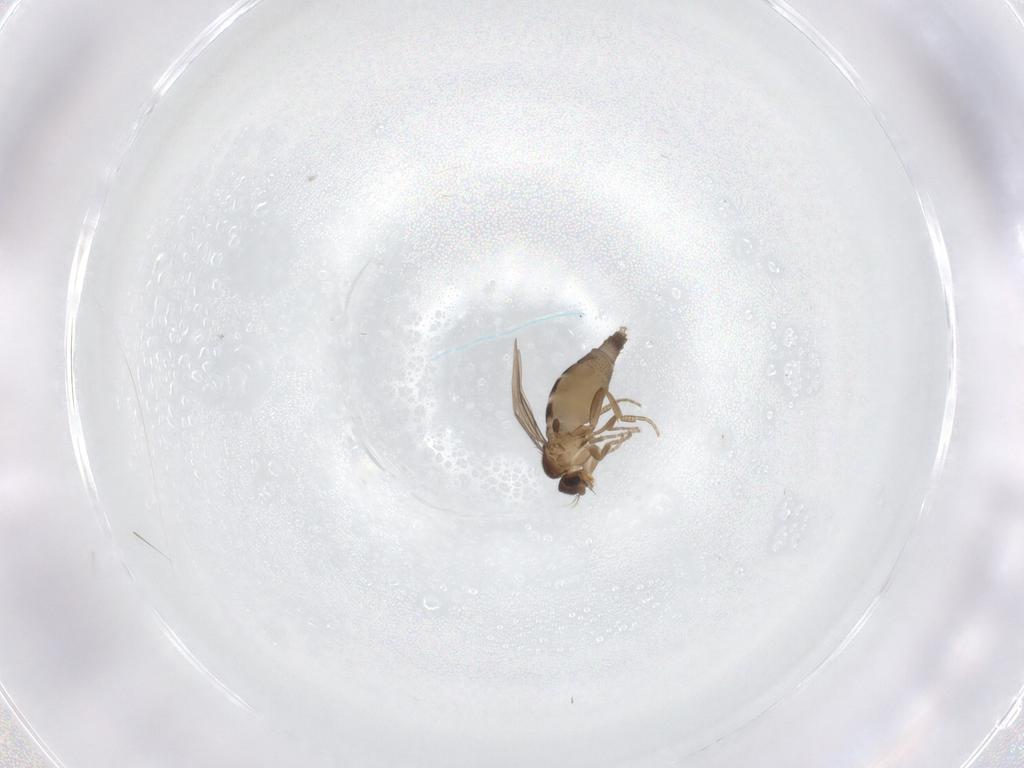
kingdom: Animalia
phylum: Arthropoda
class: Insecta
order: Diptera
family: Phoridae
